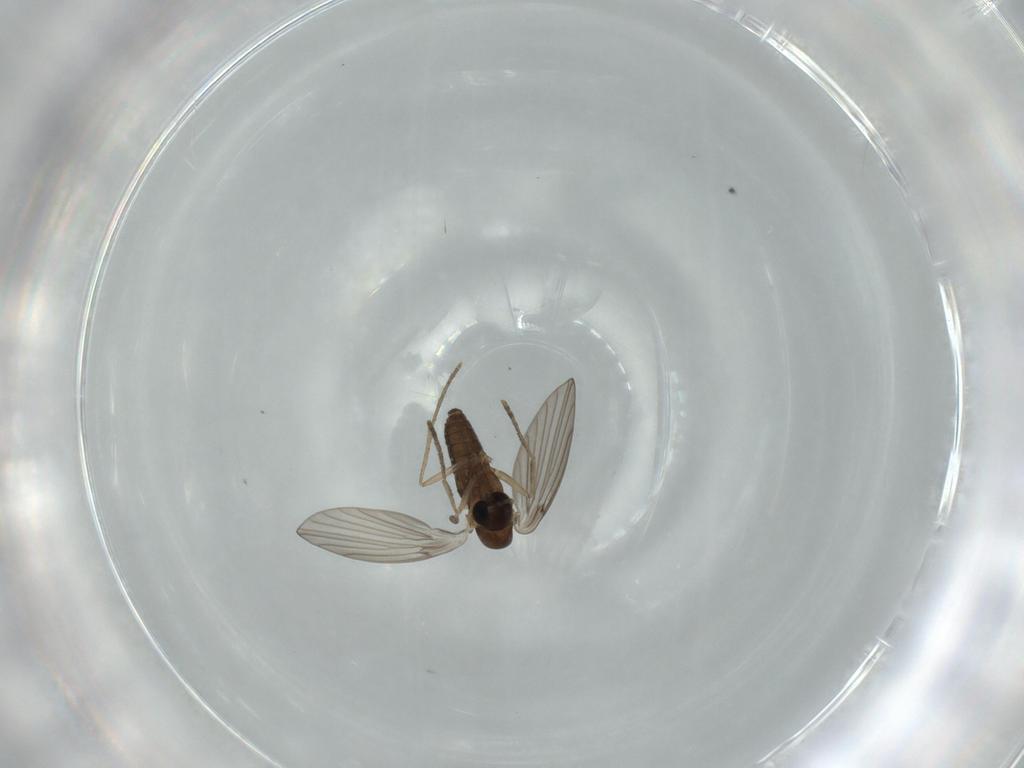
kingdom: Animalia
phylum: Arthropoda
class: Insecta
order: Diptera
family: Psychodidae
